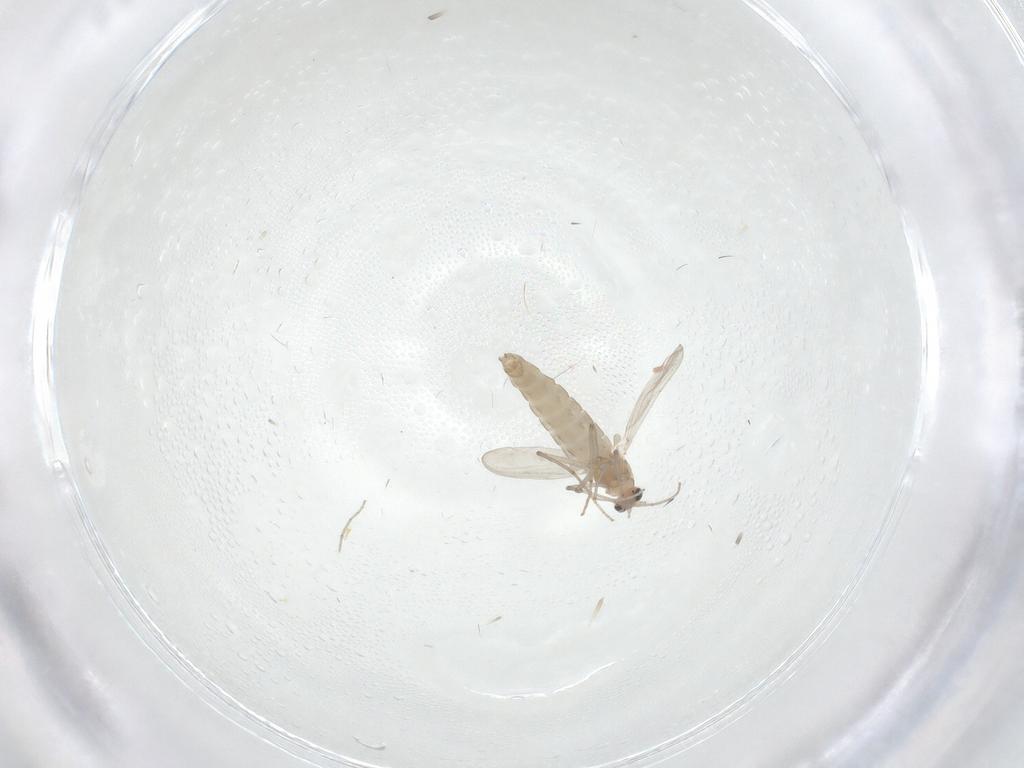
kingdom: Animalia
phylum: Arthropoda
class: Insecta
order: Diptera
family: Chironomidae
